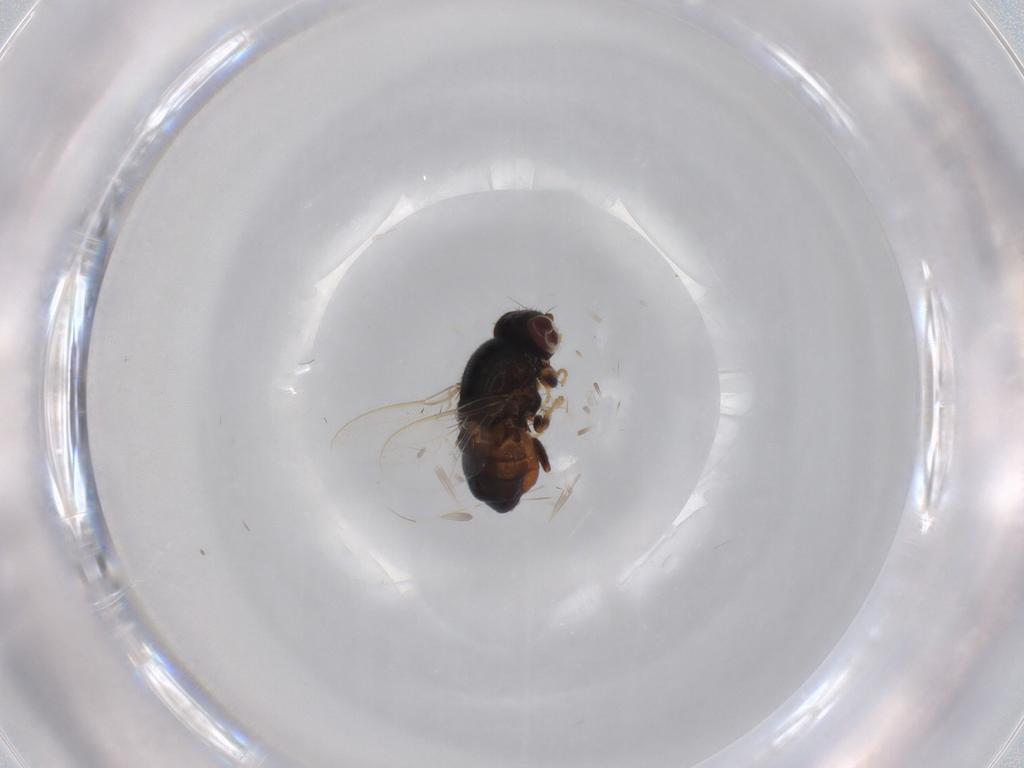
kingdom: Animalia
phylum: Arthropoda
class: Insecta
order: Diptera
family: Chloropidae
